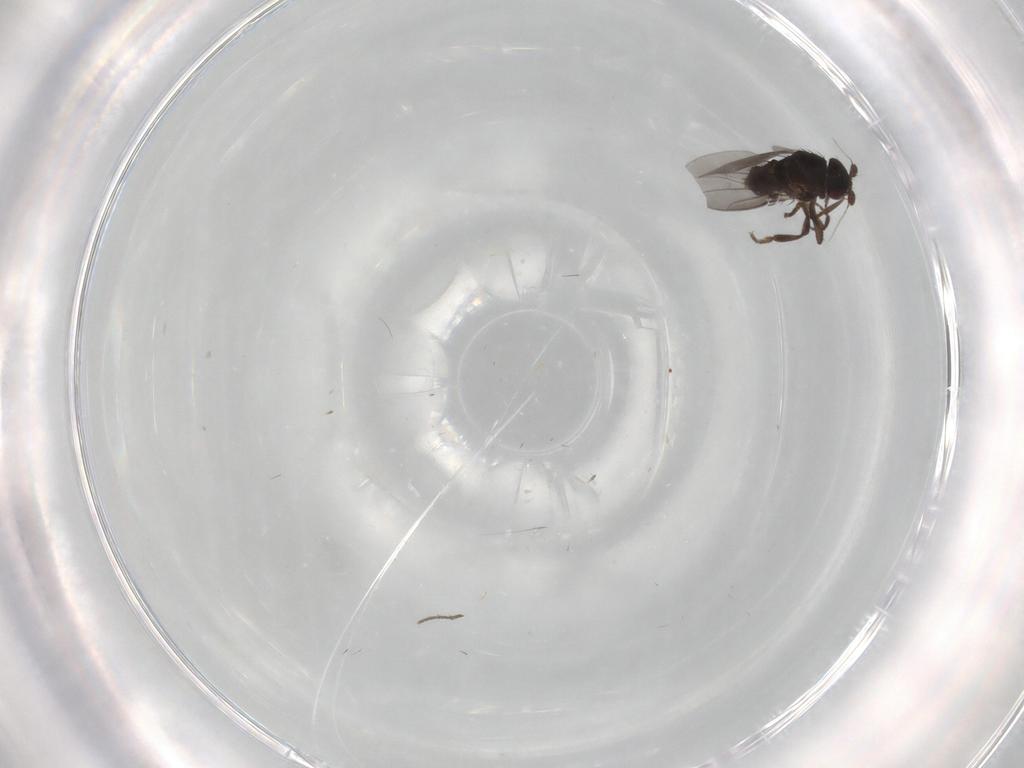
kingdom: Animalia
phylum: Arthropoda
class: Insecta
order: Diptera
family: Sphaeroceridae
